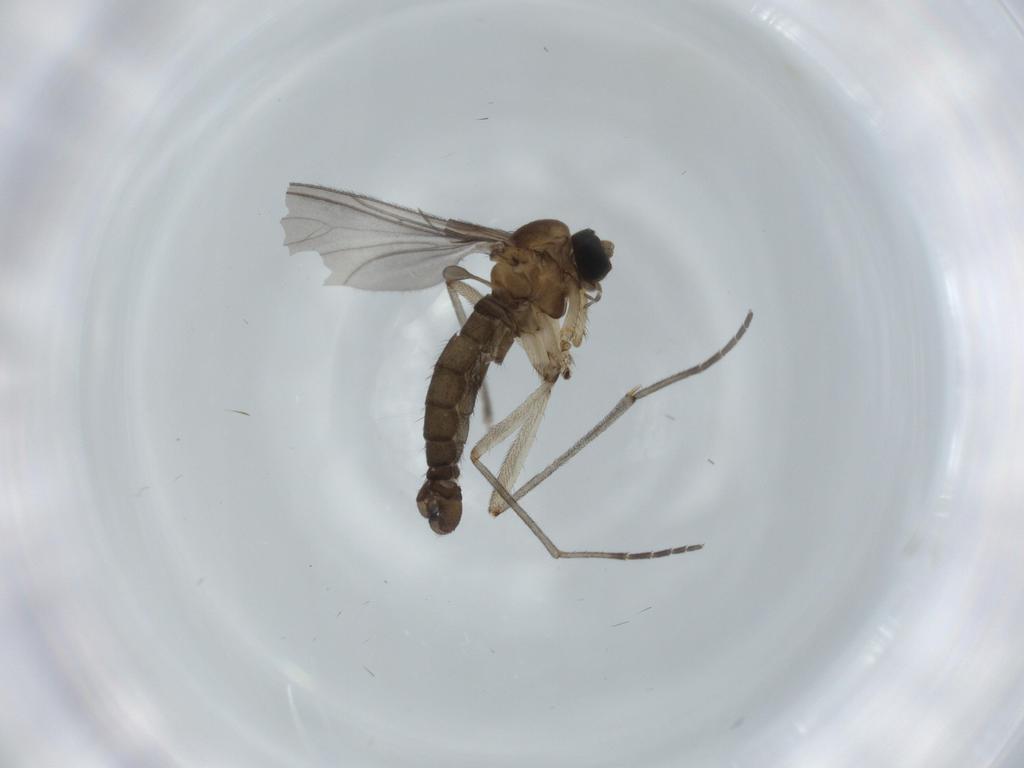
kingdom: Animalia
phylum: Arthropoda
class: Insecta
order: Diptera
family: Sciaridae
